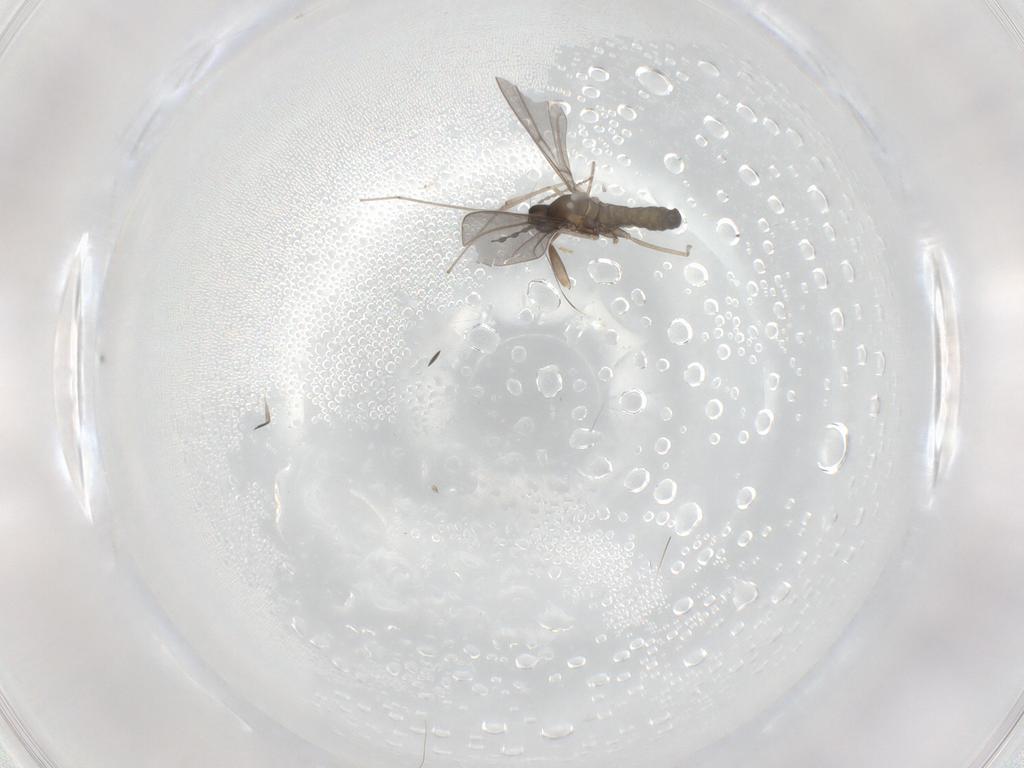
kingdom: Animalia
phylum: Arthropoda
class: Insecta
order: Diptera
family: Cecidomyiidae
